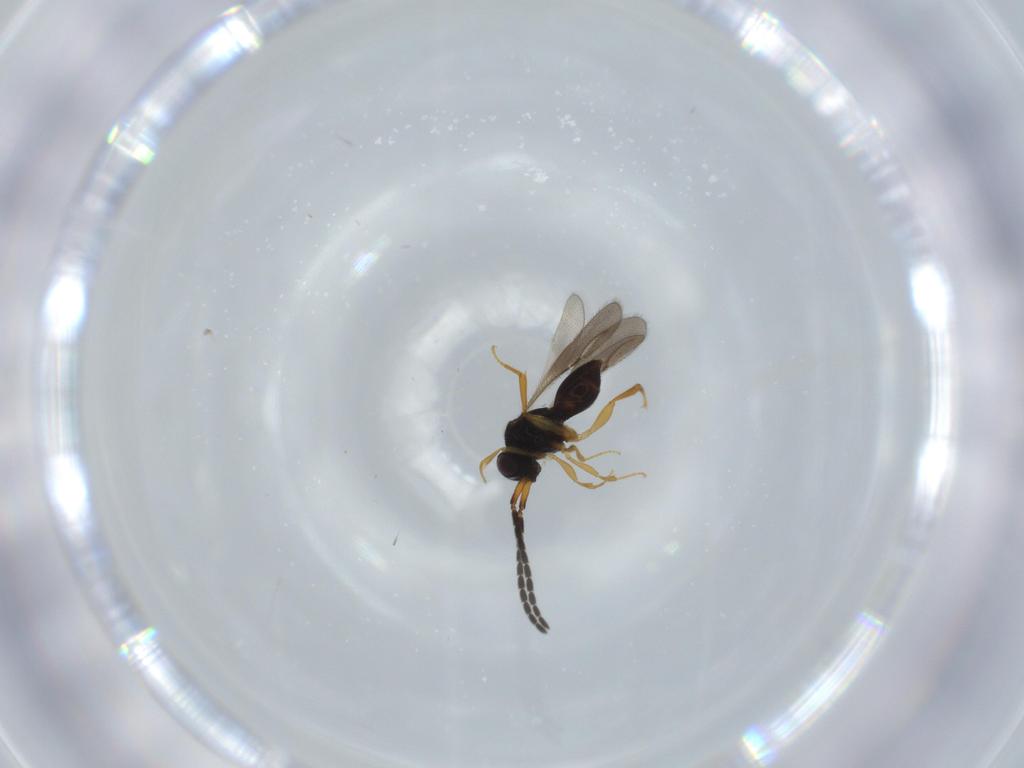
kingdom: Animalia
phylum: Arthropoda
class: Insecta
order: Hymenoptera
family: Formicidae
